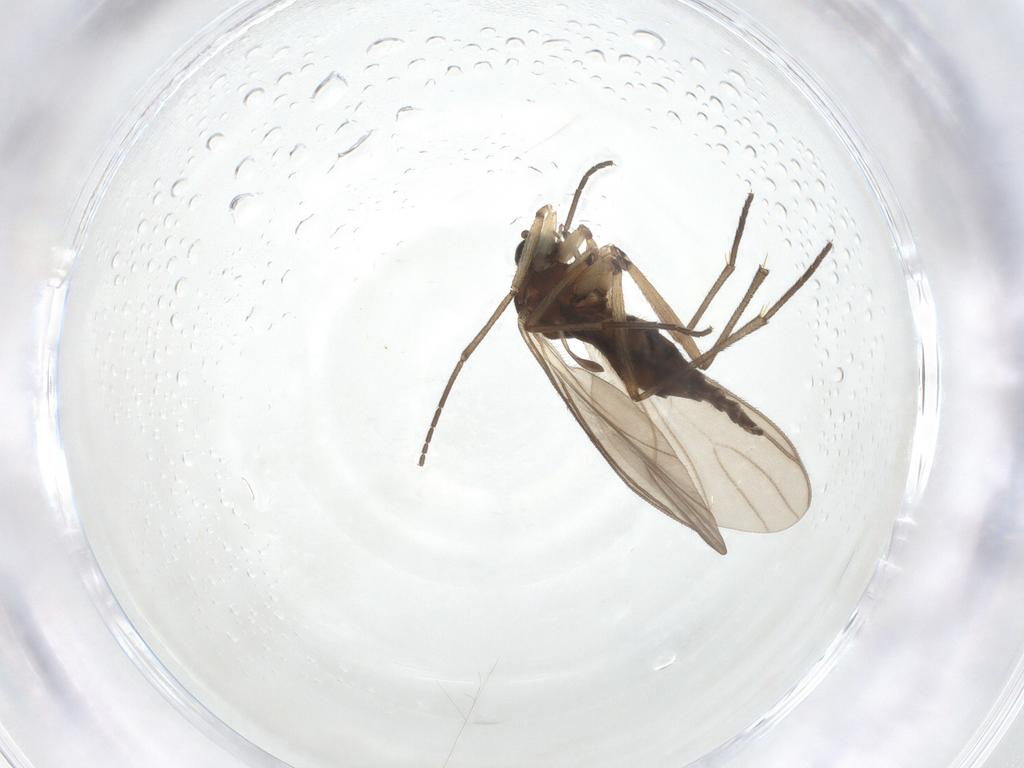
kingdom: Animalia
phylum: Arthropoda
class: Insecta
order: Diptera
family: Sciaridae
